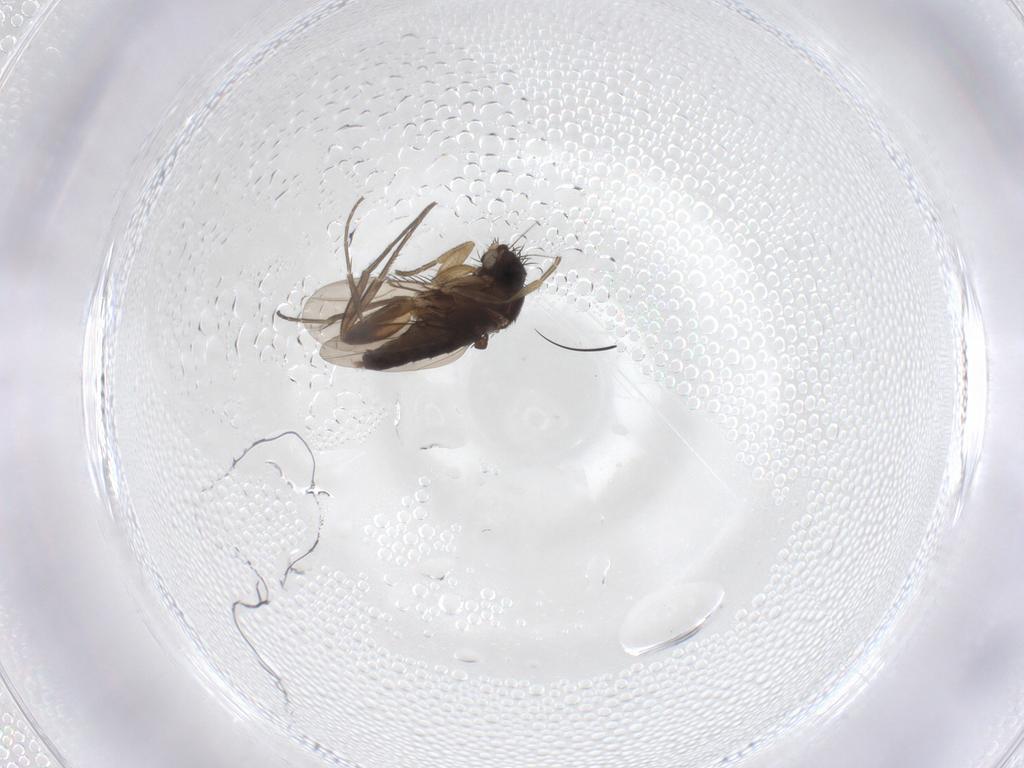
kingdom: Animalia
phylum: Arthropoda
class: Insecta
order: Diptera
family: Phoridae
